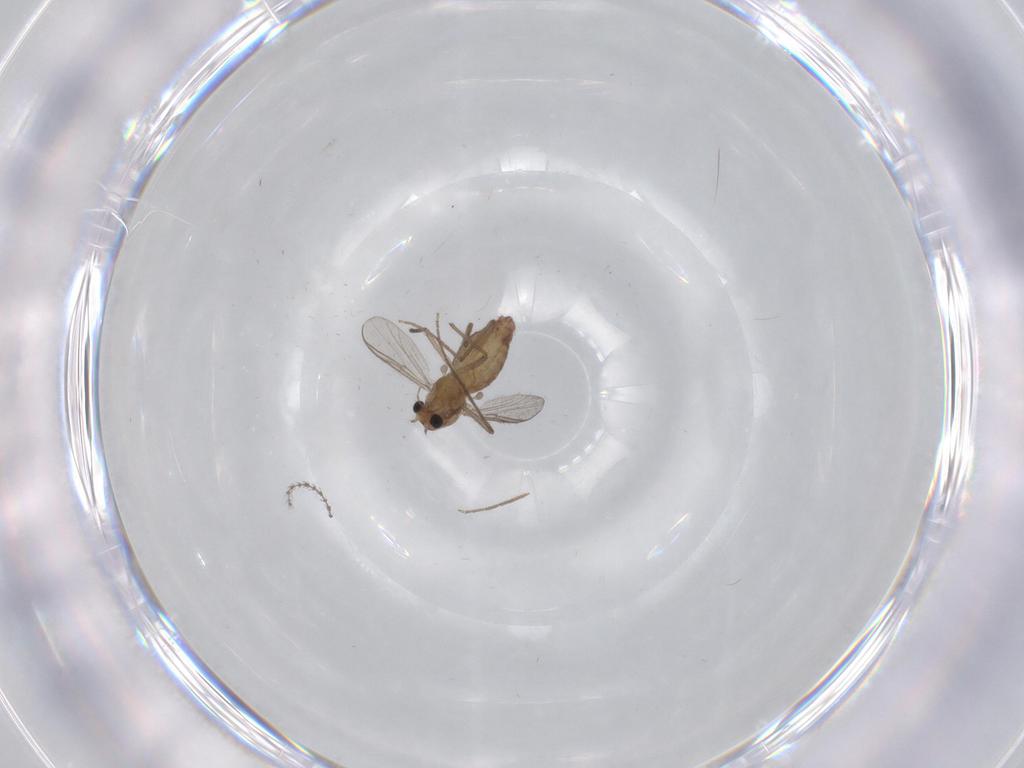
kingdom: Animalia
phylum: Arthropoda
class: Insecta
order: Diptera
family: Chironomidae
